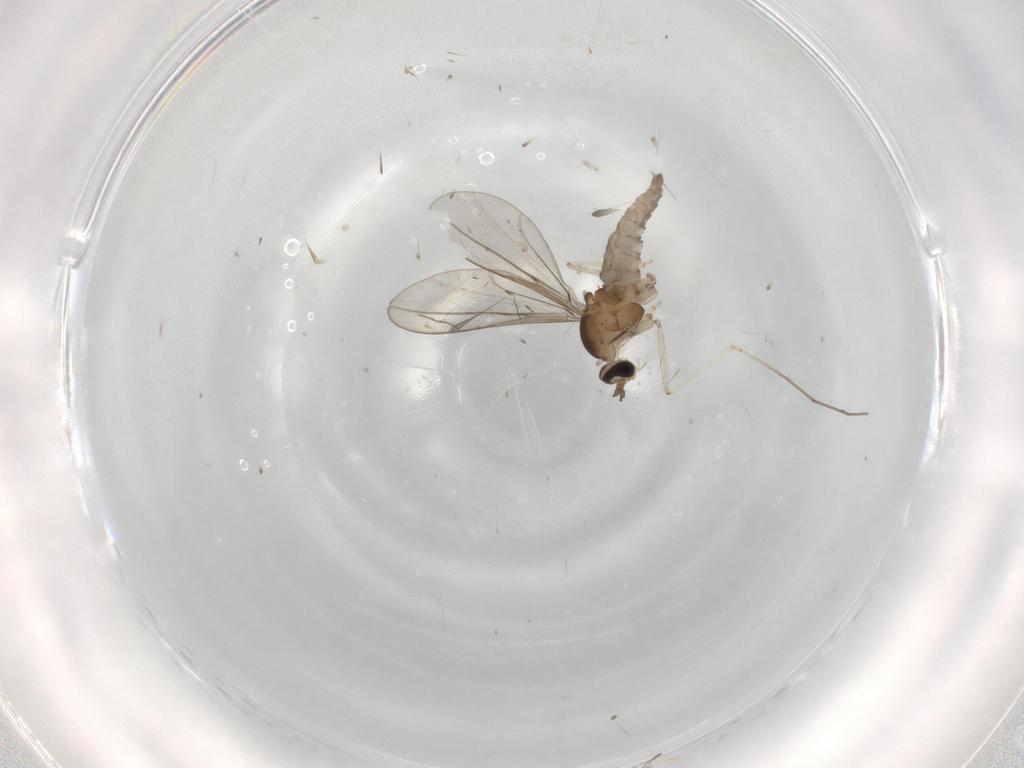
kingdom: Animalia
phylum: Arthropoda
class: Insecta
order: Diptera
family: Cecidomyiidae
